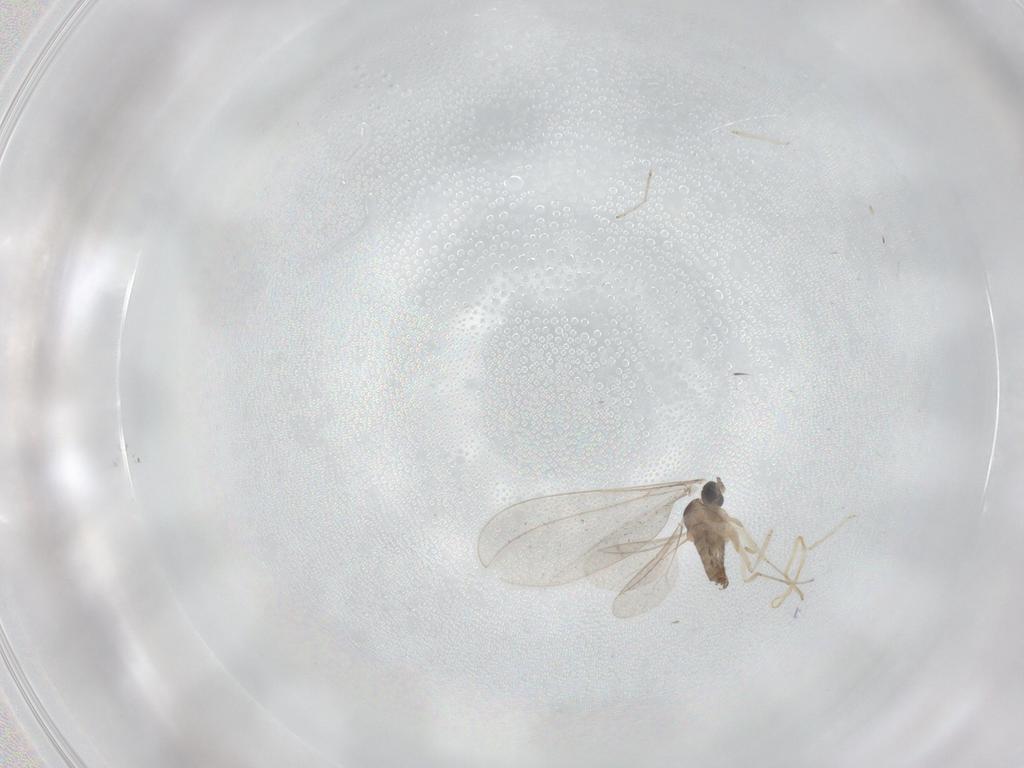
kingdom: Animalia
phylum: Arthropoda
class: Insecta
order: Diptera
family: Cecidomyiidae
